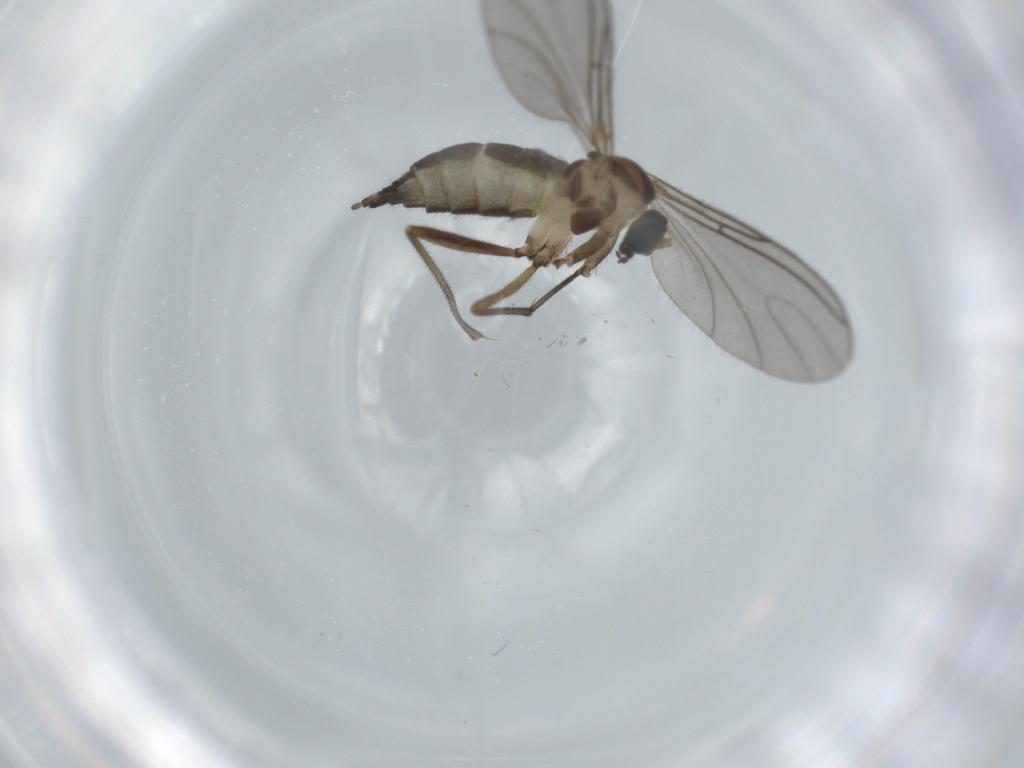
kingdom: Animalia
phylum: Arthropoda
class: Insecta
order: Diptera
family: Sciaridae
